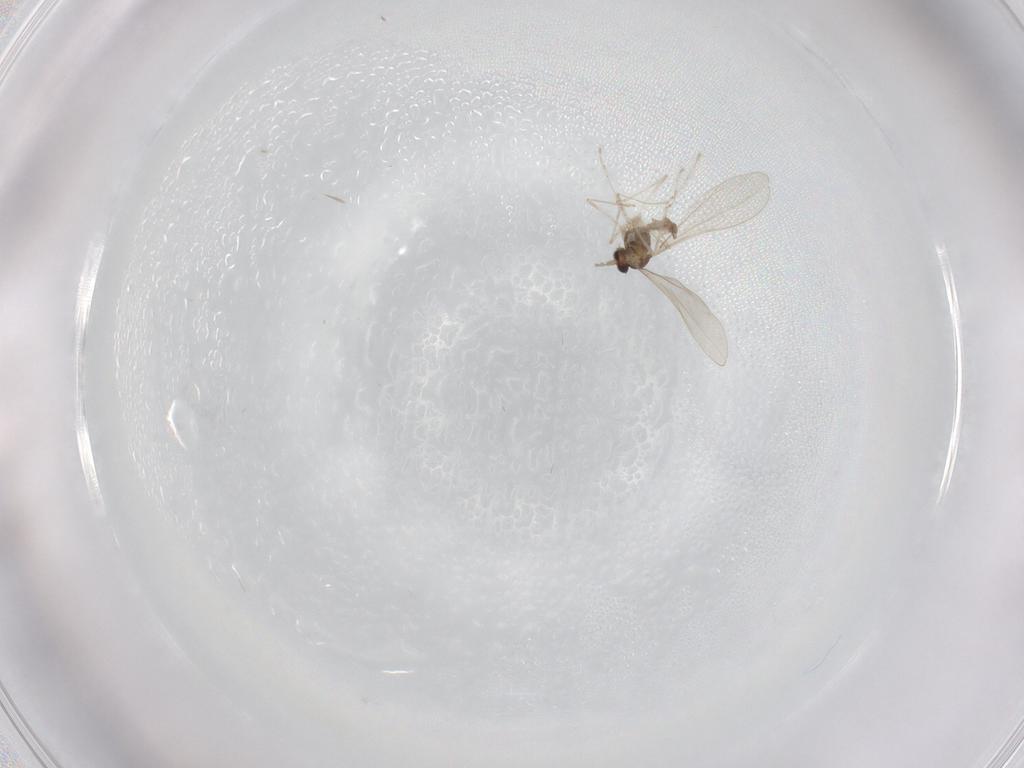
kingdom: Animalia
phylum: Arthropoda
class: Insecta
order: Diptera
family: Cecidomyiidae
